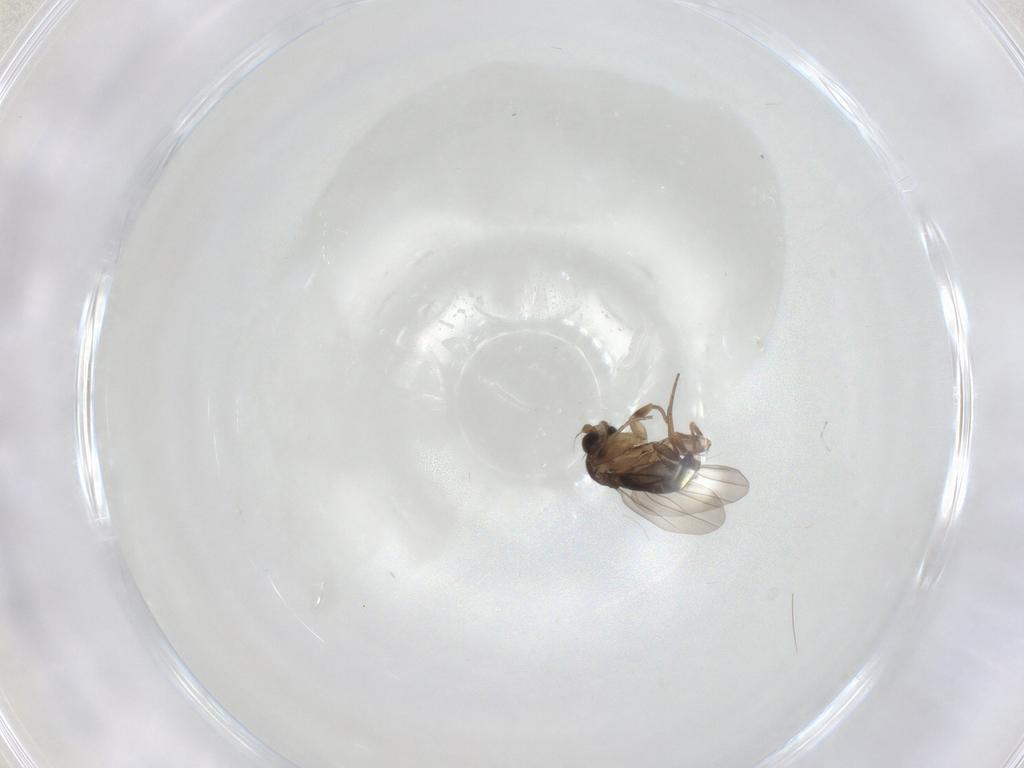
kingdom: Animalia
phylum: Arthropoda
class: Insecta
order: Diptera
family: Phoridae
